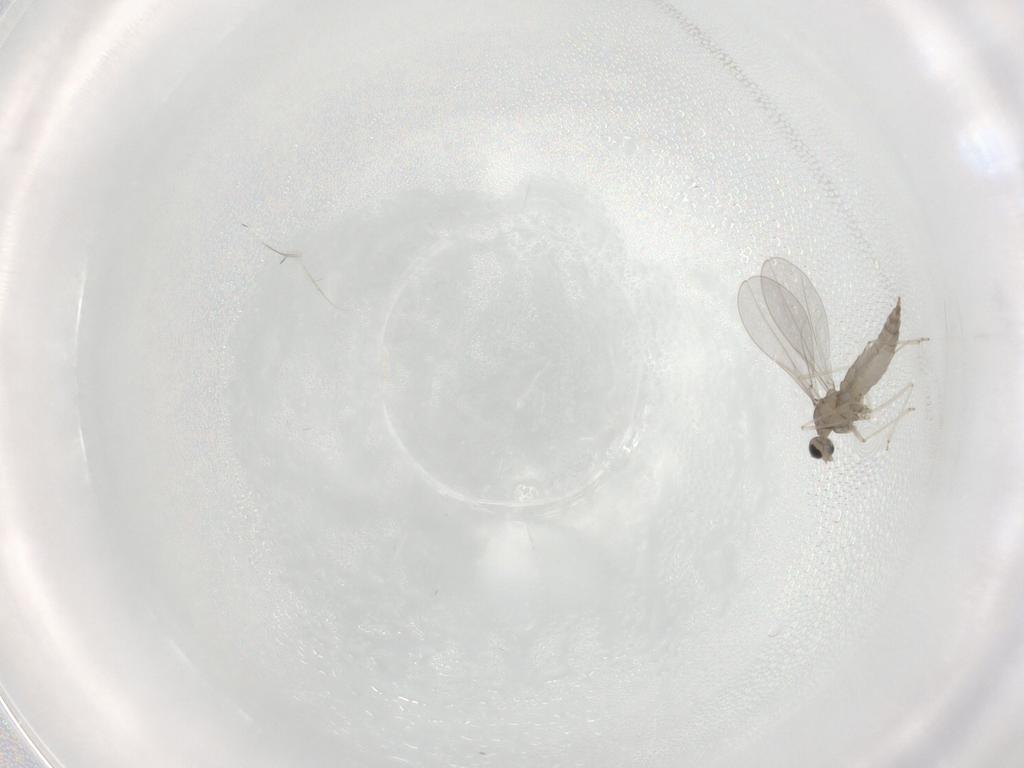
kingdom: Animalia
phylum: Arthropoda
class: Insecta
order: Diptera
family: Cecidomyiidae
